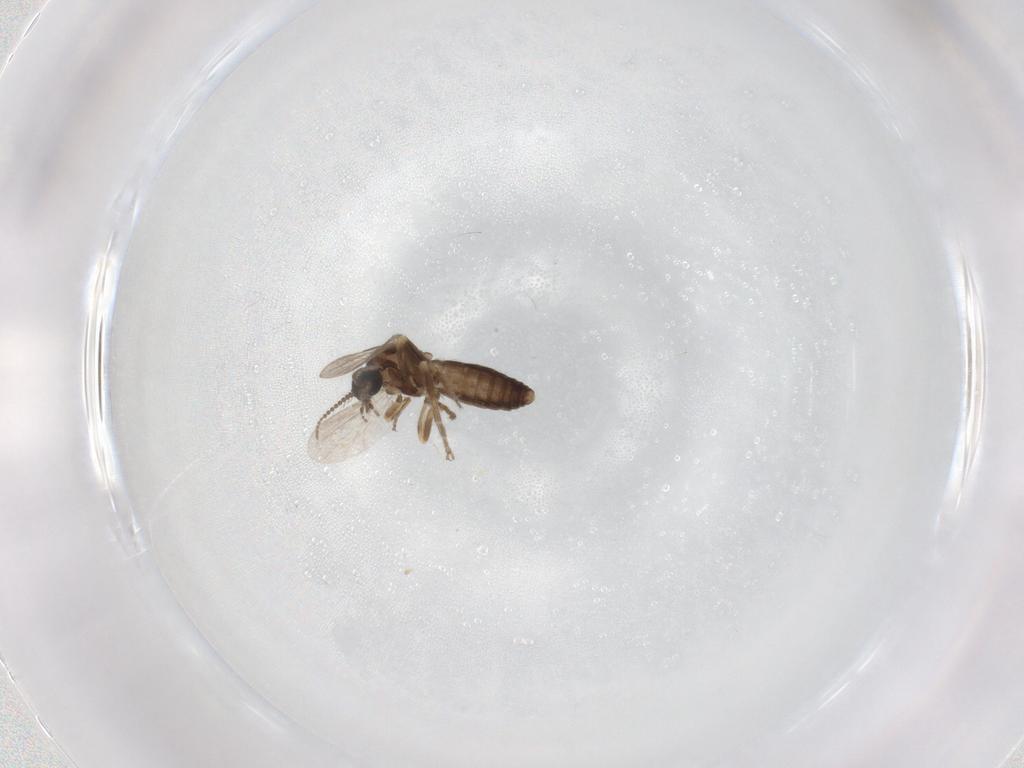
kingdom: Animalia
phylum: Arthropoda
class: Insecta
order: Diptera
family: Ceratopogonidae
